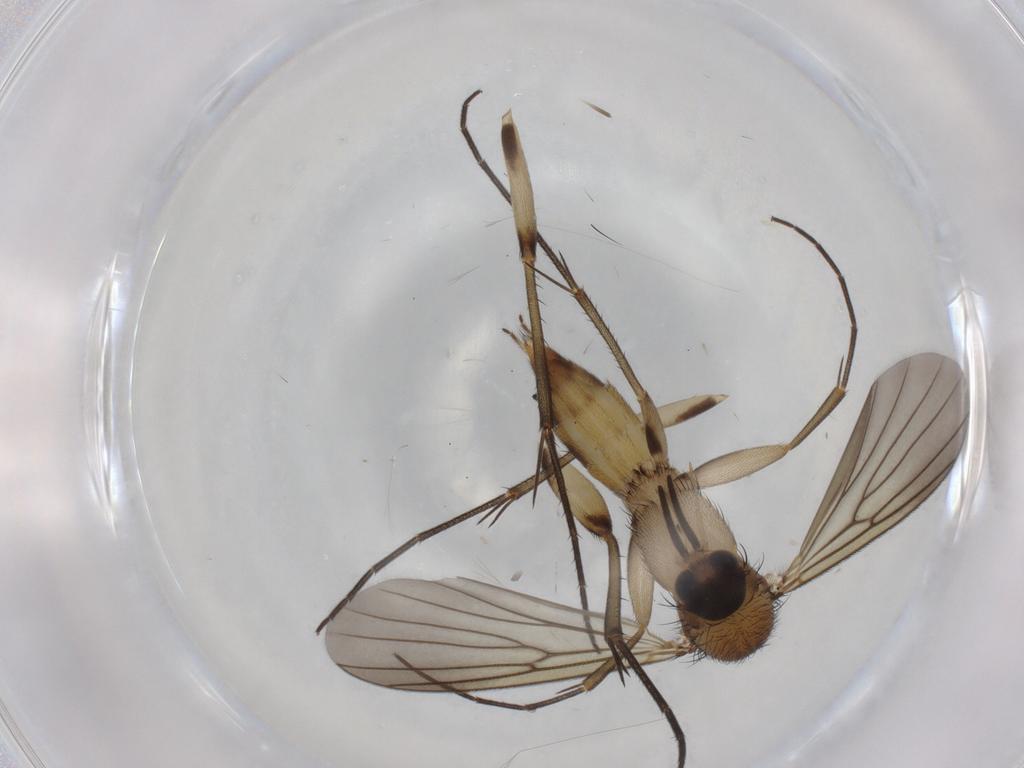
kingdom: Animalia
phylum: Arthropoda
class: Insecta
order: Diptera
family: Mycetophilidae
